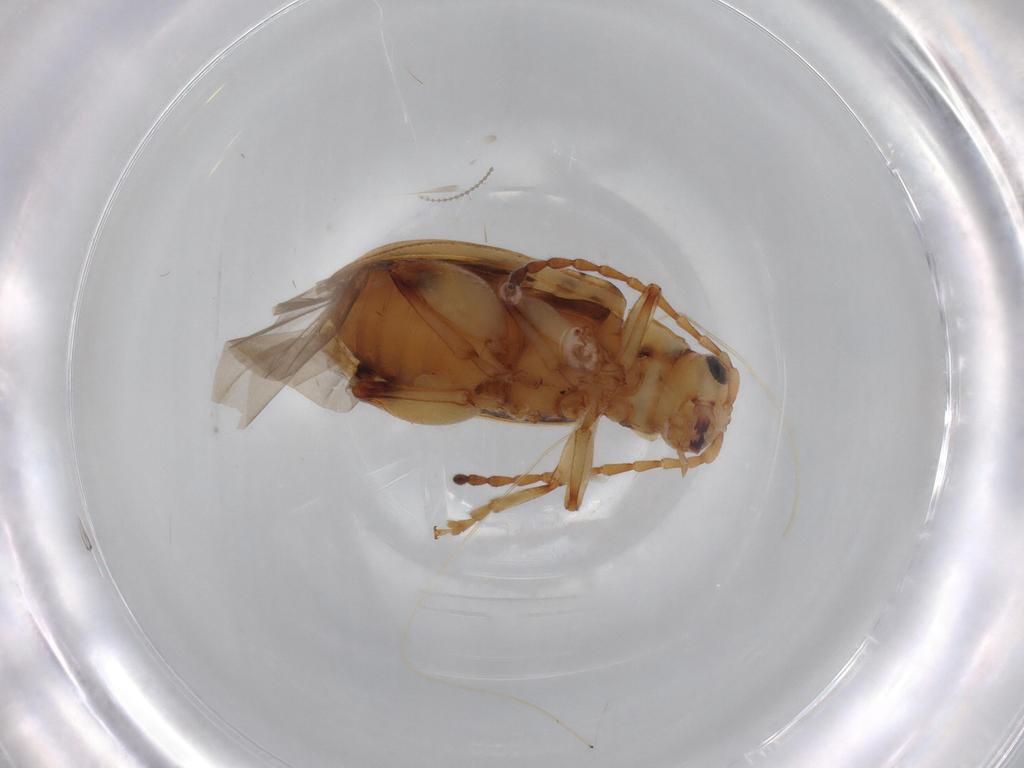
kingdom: Animalia
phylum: Arthropoda
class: Insecta
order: Coleoptera
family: Chrysomelidae
